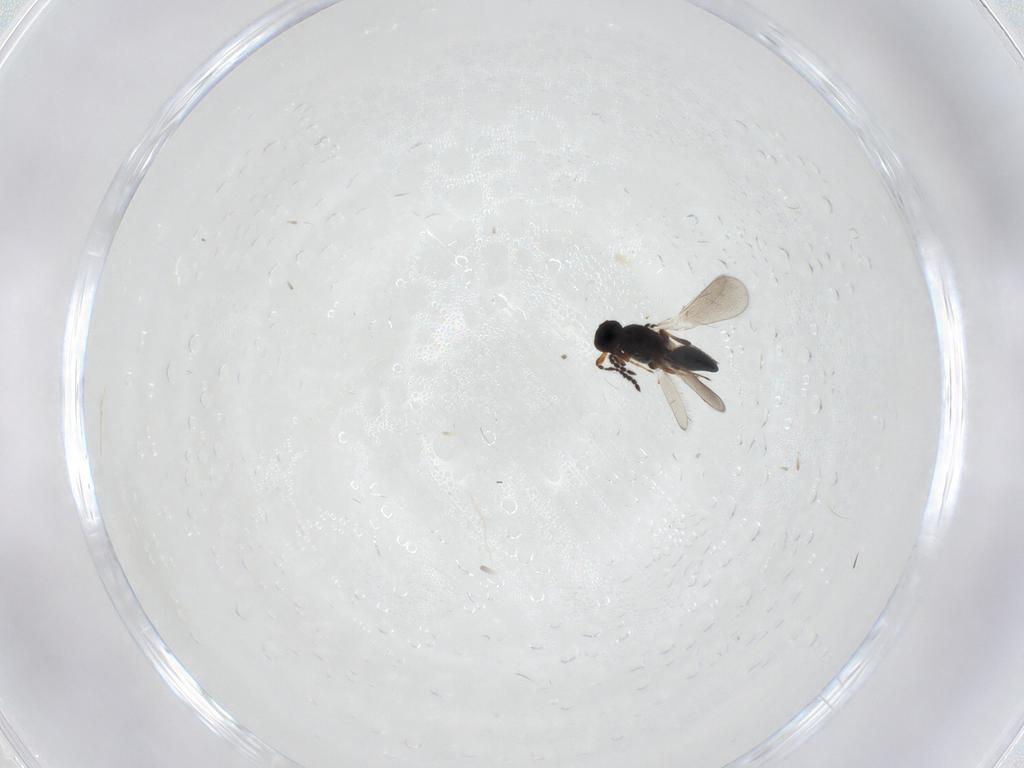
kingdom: Animalia
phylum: Arthropoda
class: Insecta
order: Hymenoptera
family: Platygastridae
